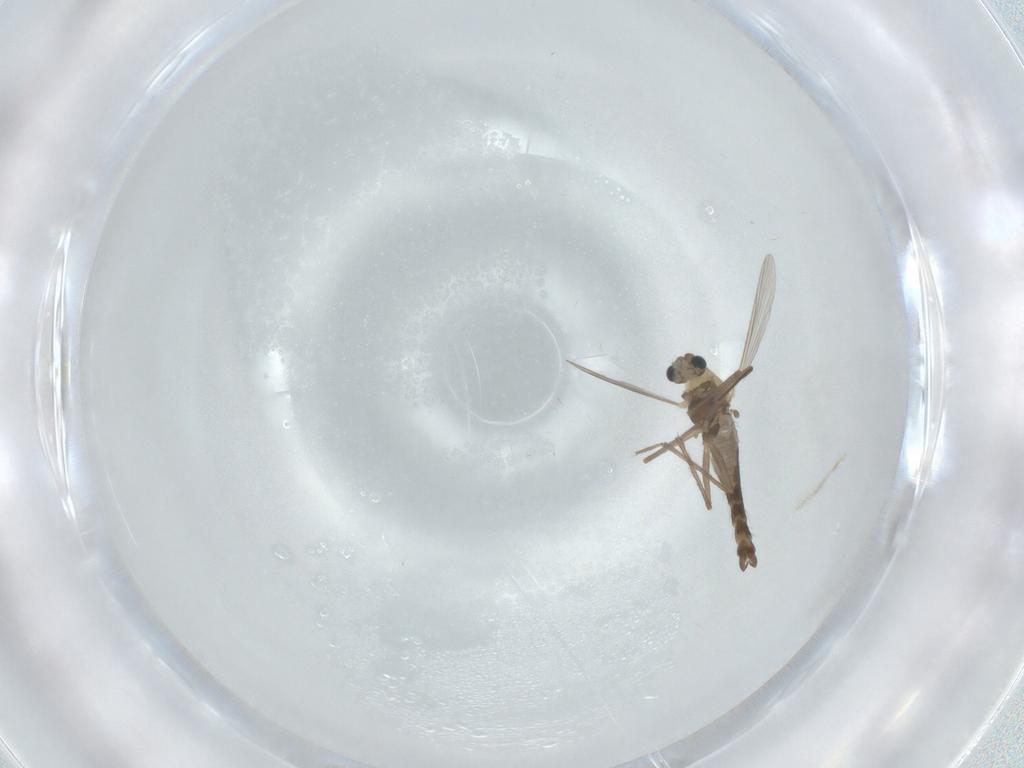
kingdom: Animalia
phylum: Arthropoda
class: Insecta
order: Diptera
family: Chironomidae
